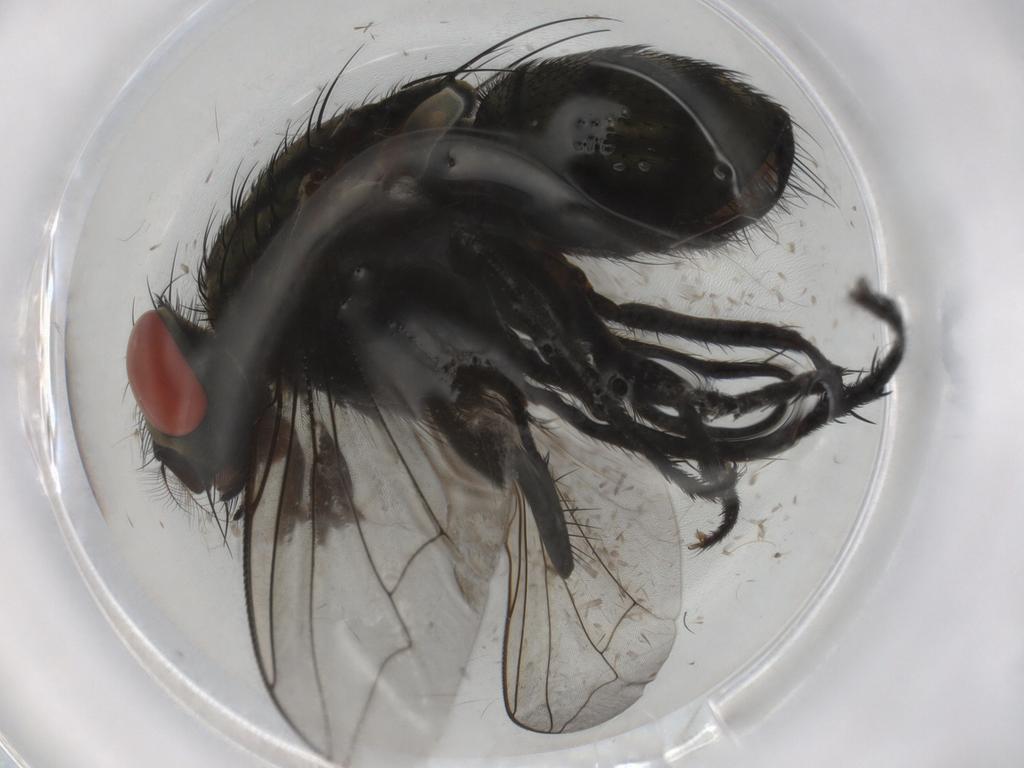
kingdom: Animalia
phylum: Arthropoda
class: Insecta
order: Diptera
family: Sarcophagidae
